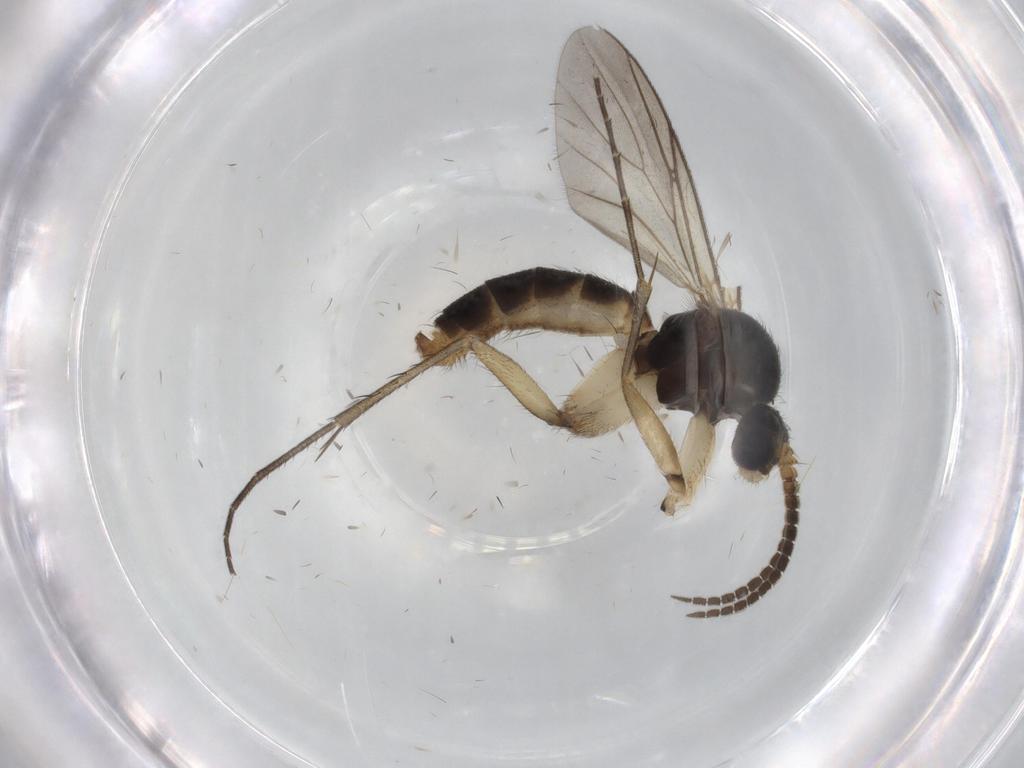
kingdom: Animalia
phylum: Arthropoda
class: Insecta
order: Diptera
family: Chironomidae
